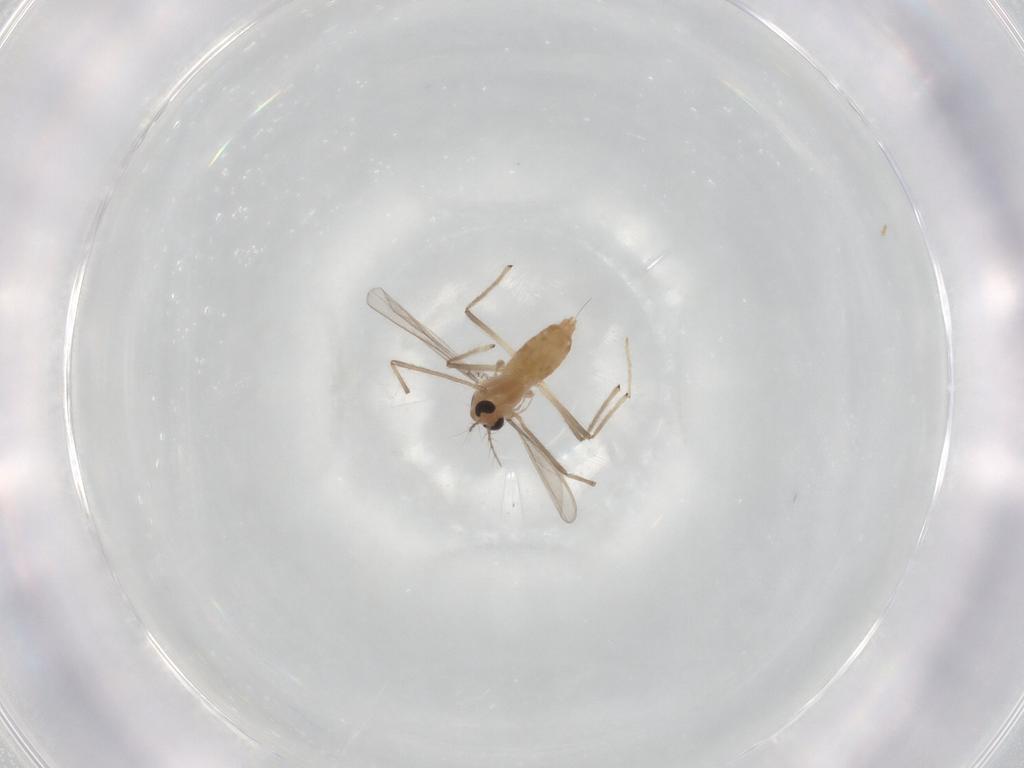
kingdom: Animalia
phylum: Arthropoda
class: Insecta
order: Diptera
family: Chironomidae
